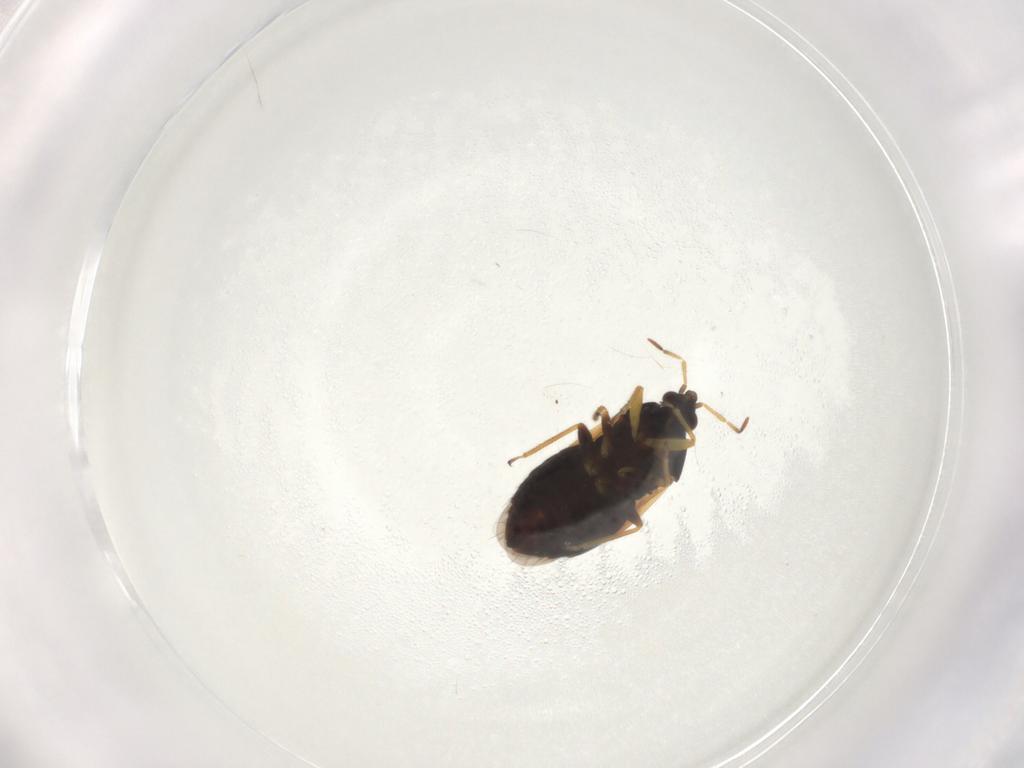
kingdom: Animalia
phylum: Arthropoda
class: Insecta
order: Hemiptera
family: Anthocoridae
